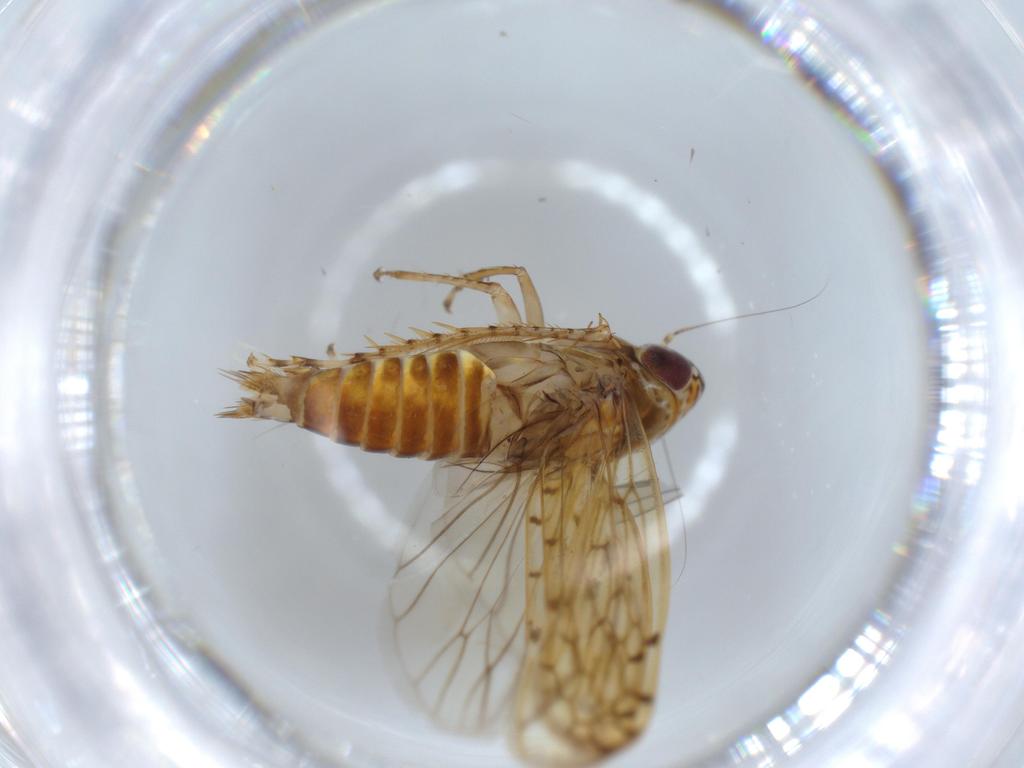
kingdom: Animalia
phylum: Arthropoda
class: Insecta
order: Hemiptera
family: Cicadellidae
